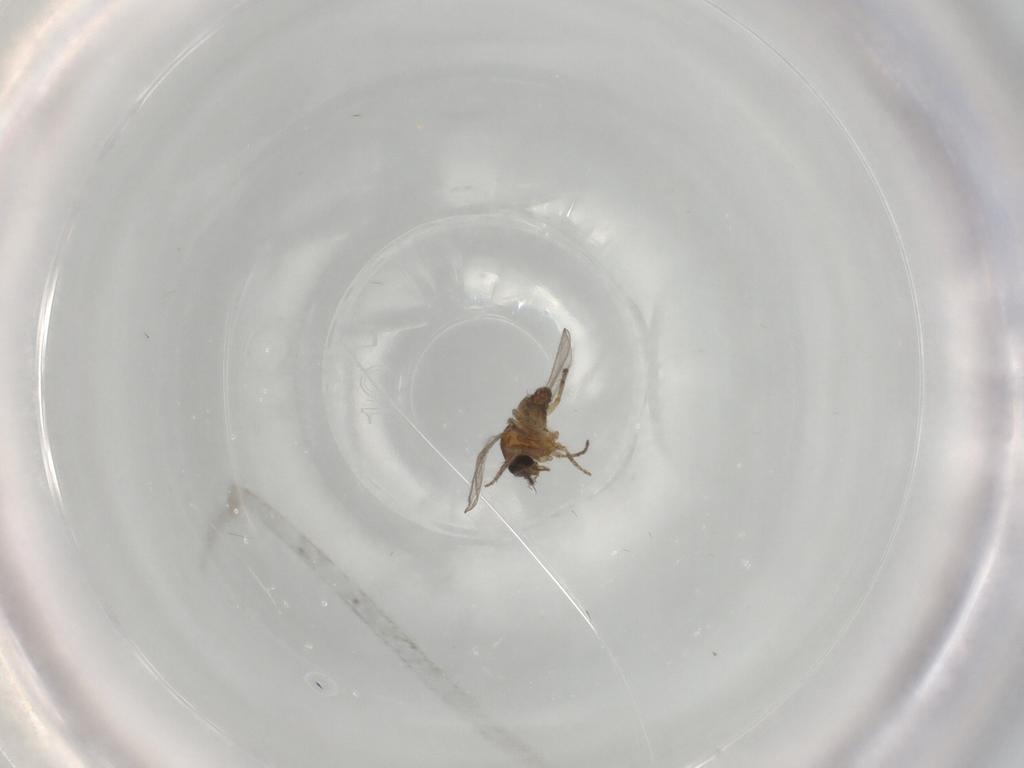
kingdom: Animalia
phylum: Arthropoda
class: Insecta
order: Diptera
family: Ceratopogonidae
